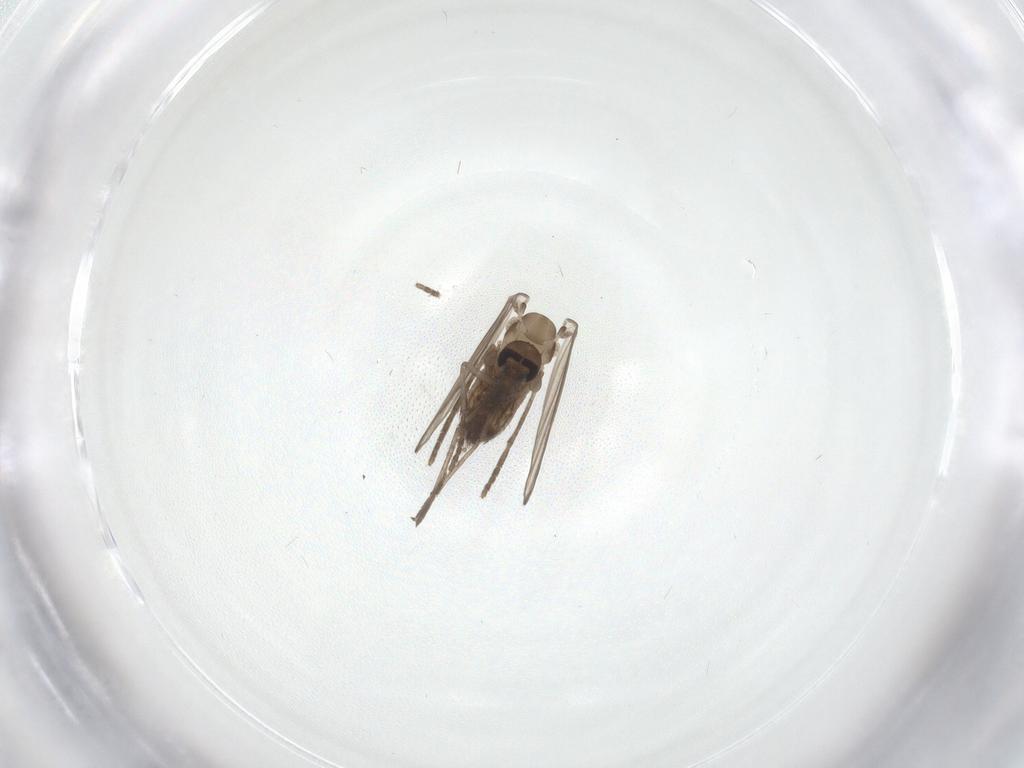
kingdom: Animalia
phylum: Arthropoda
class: Insecta
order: Diptera
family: Psychodidae
